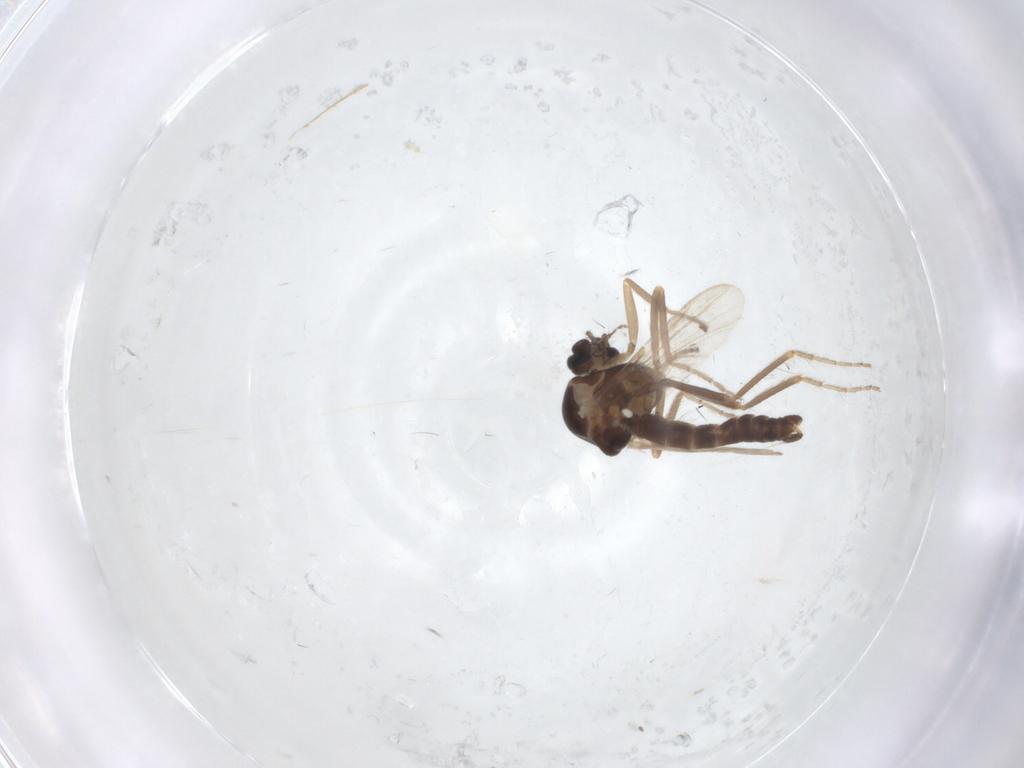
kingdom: Animalia
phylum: Arthropoda
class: Insecta
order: Diptera
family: Ceratopogonidae
